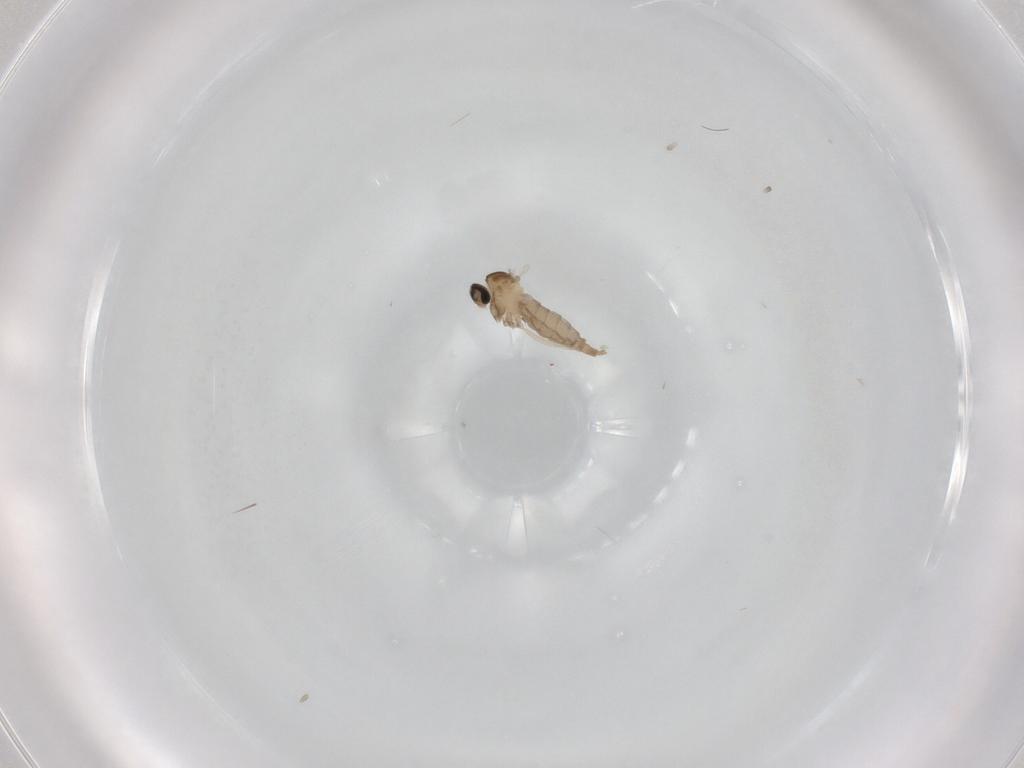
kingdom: Animalia
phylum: Arthropoda
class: Insecta
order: Diptera
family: Cecidomyiidae
